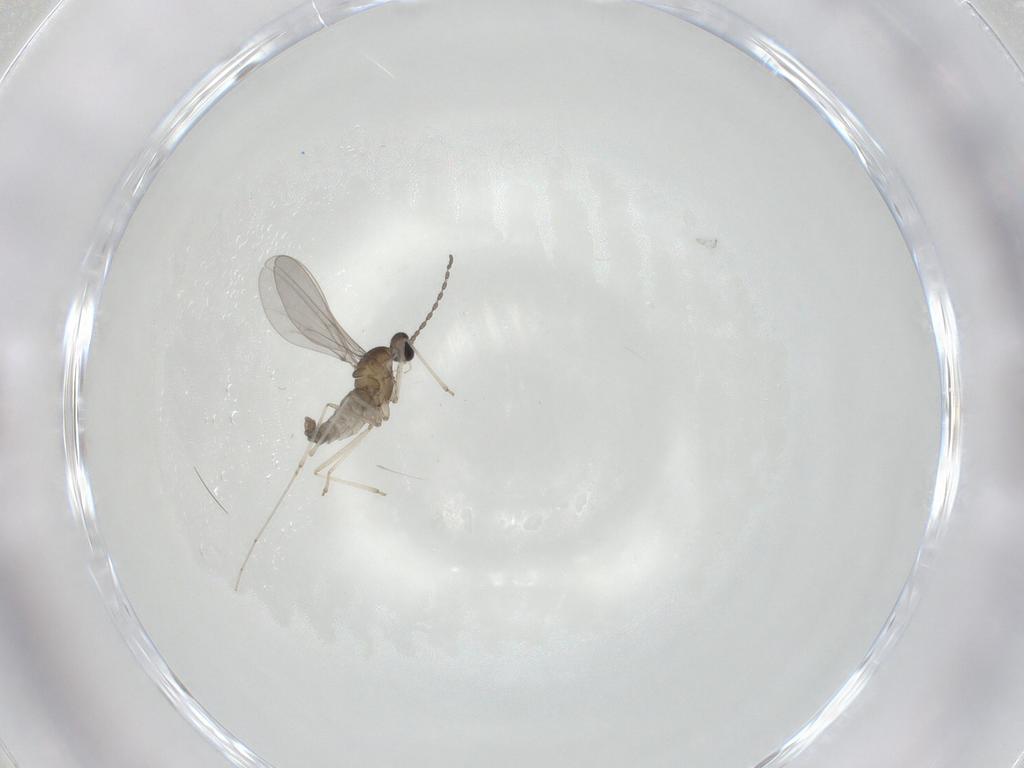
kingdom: Animalia
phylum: Arthropoda
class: Insecta
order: Diptera
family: Cecidomyiidae
